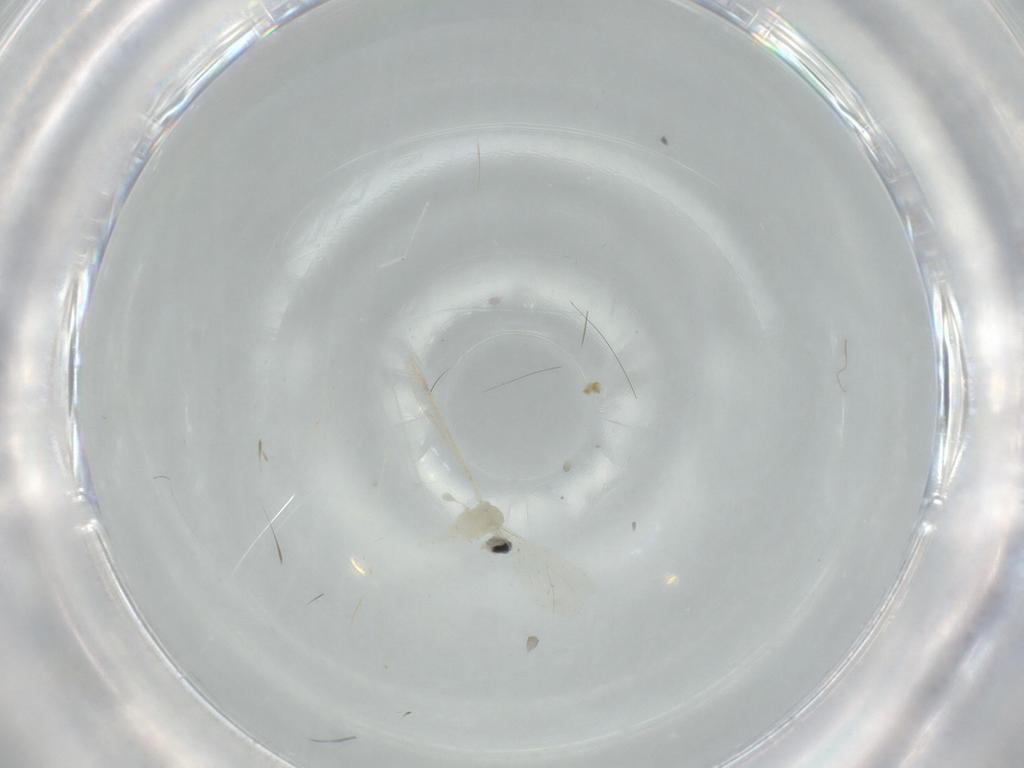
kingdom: Animalia
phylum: Arthropoda
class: Insecta
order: Diptera
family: Cecidomyiidae
